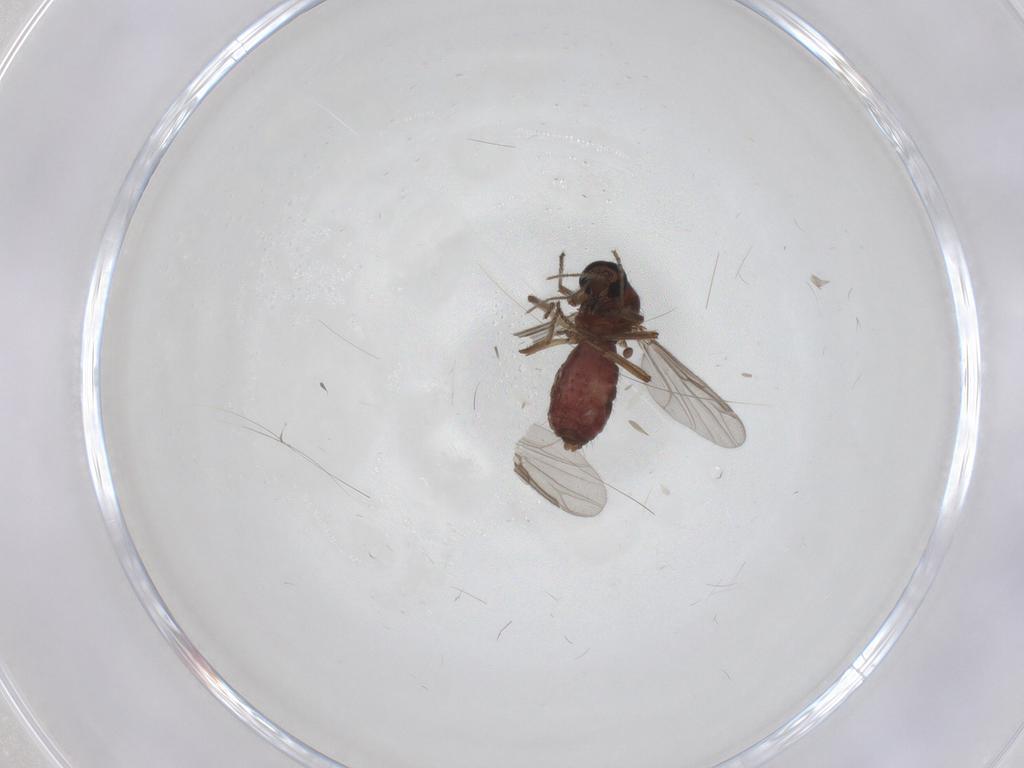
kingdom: Animalia
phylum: Arthropoda
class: Insecta
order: Diptera
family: Ceratopogonidae
